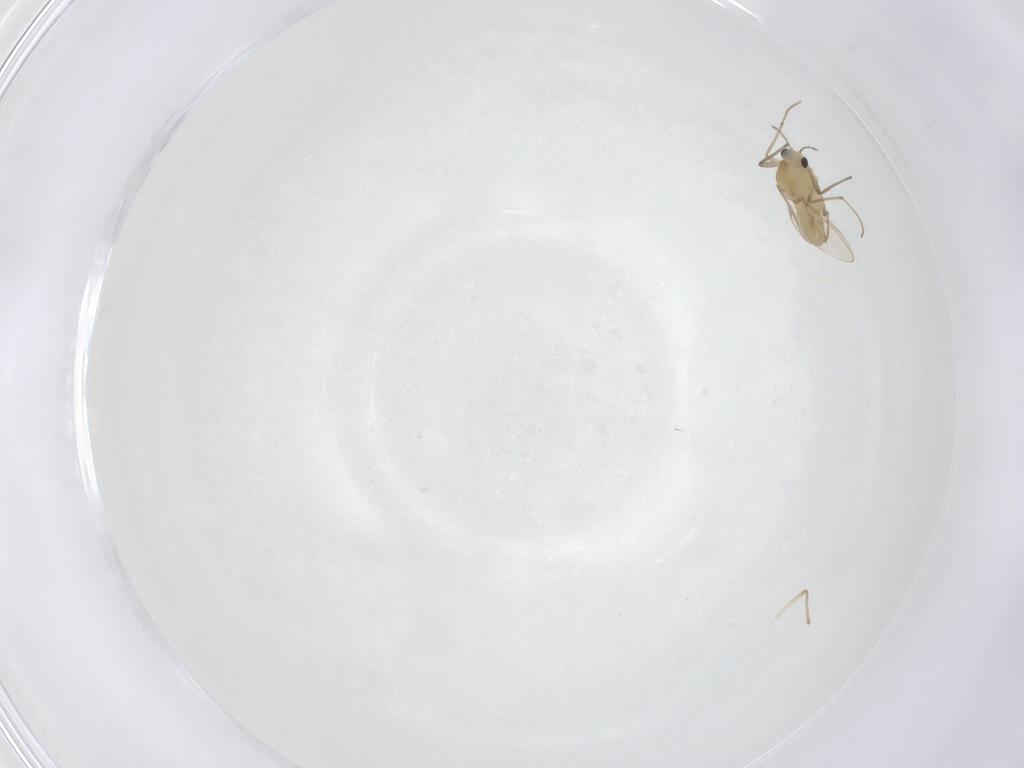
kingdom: Animalia
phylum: Arthropoda
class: Insecta
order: Diptera
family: Chironomidae
